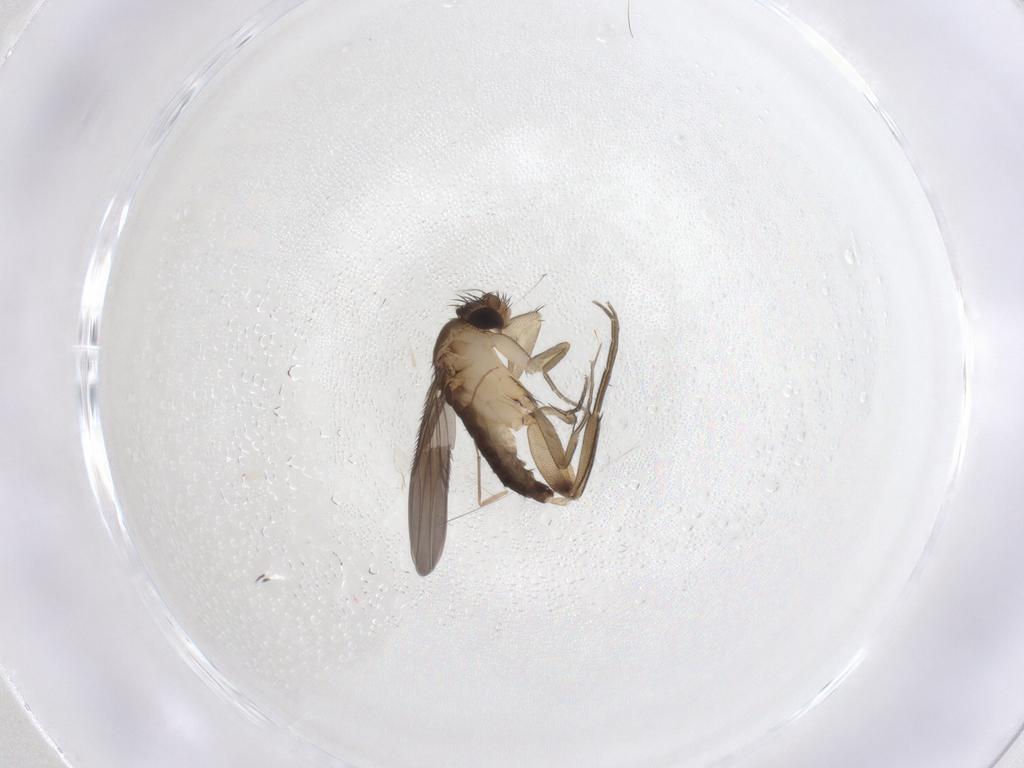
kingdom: Animalia
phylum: Arthropoda
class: Insecta
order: Diptera
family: Phoridae
